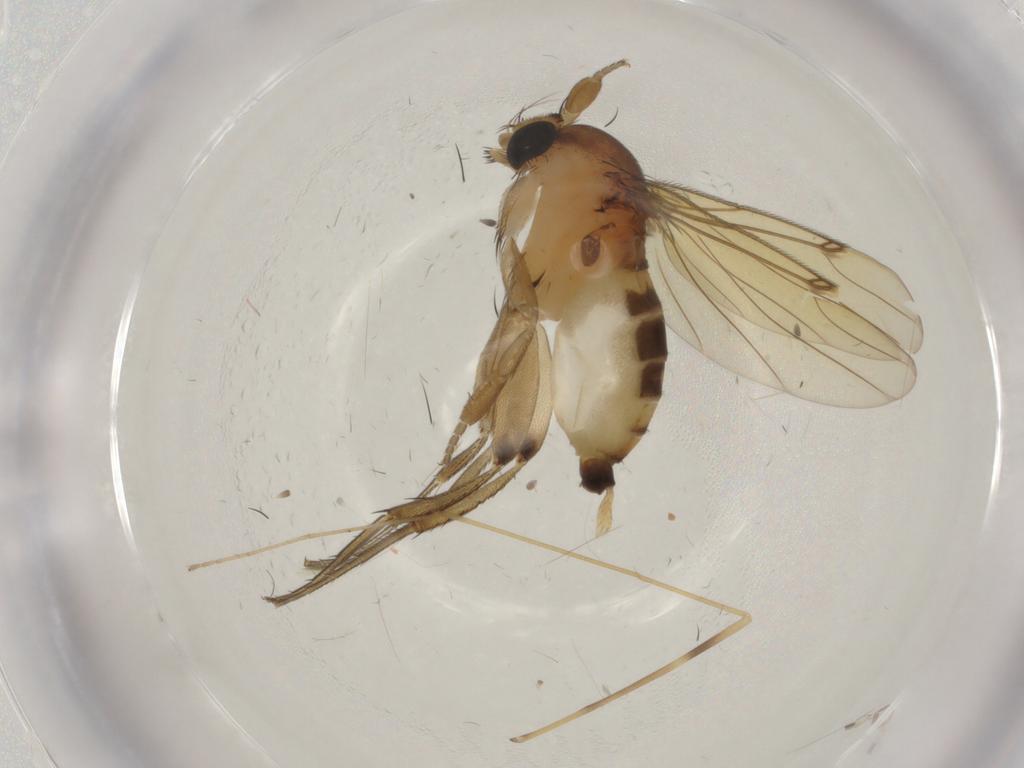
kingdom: Animalia
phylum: Arthropoda
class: Insecta
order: Diptera
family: Phoridae
